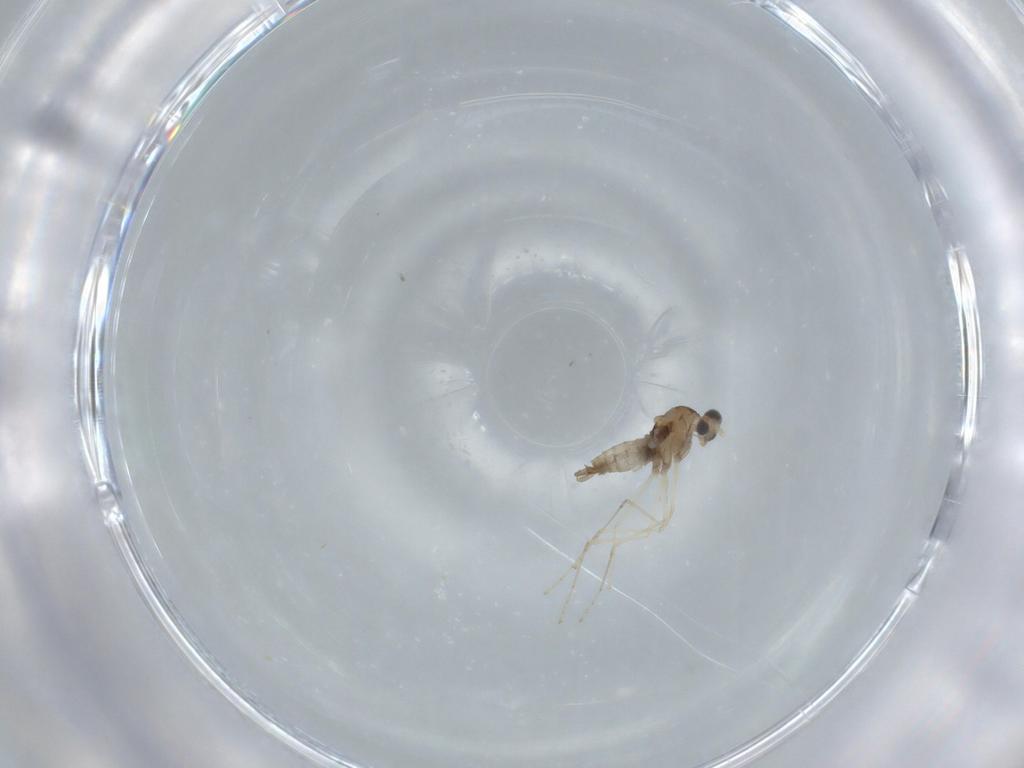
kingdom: Animalia
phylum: Arthropoda
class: Insecta
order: Diptera
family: Cecidomyiidae
